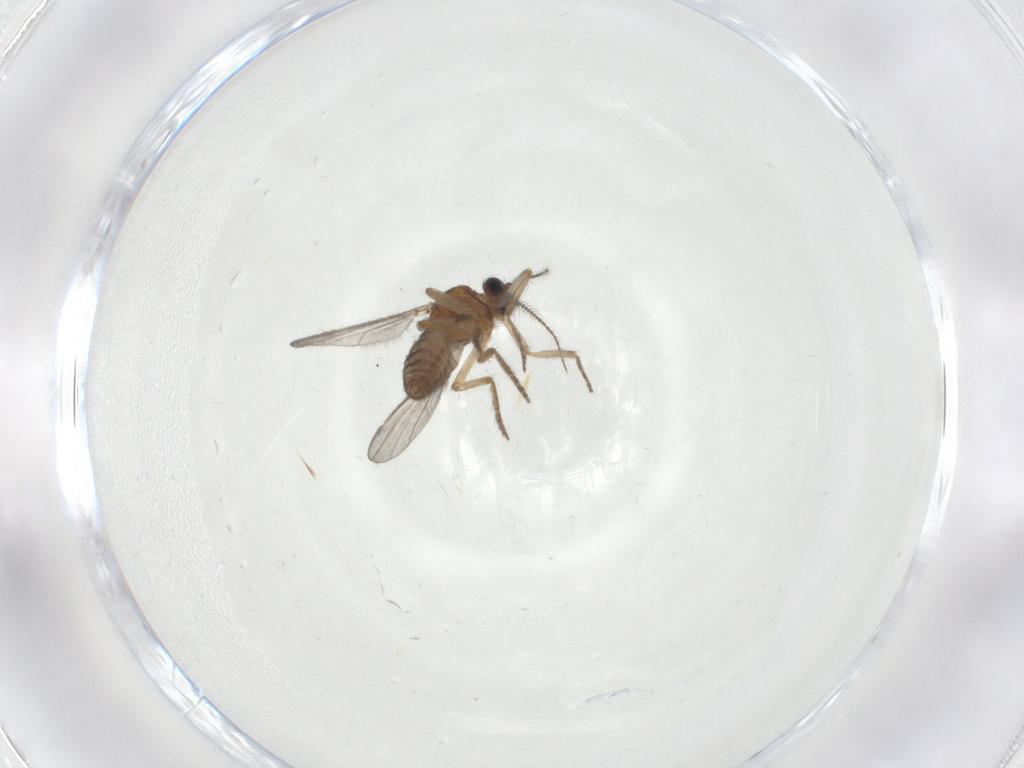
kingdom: Animalia
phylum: Arthropoda
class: Insecta
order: Diptera
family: Ceratopogonidae
